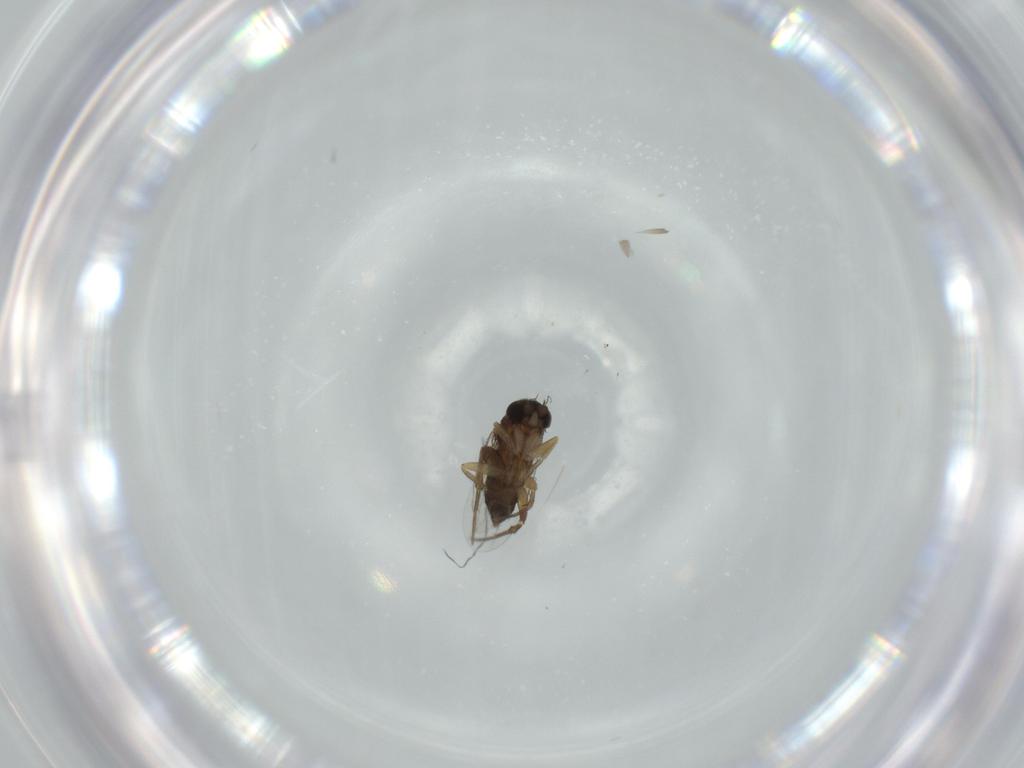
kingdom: Animalia
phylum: Arthropoda
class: Insecta
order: Diptera
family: Phoridae
